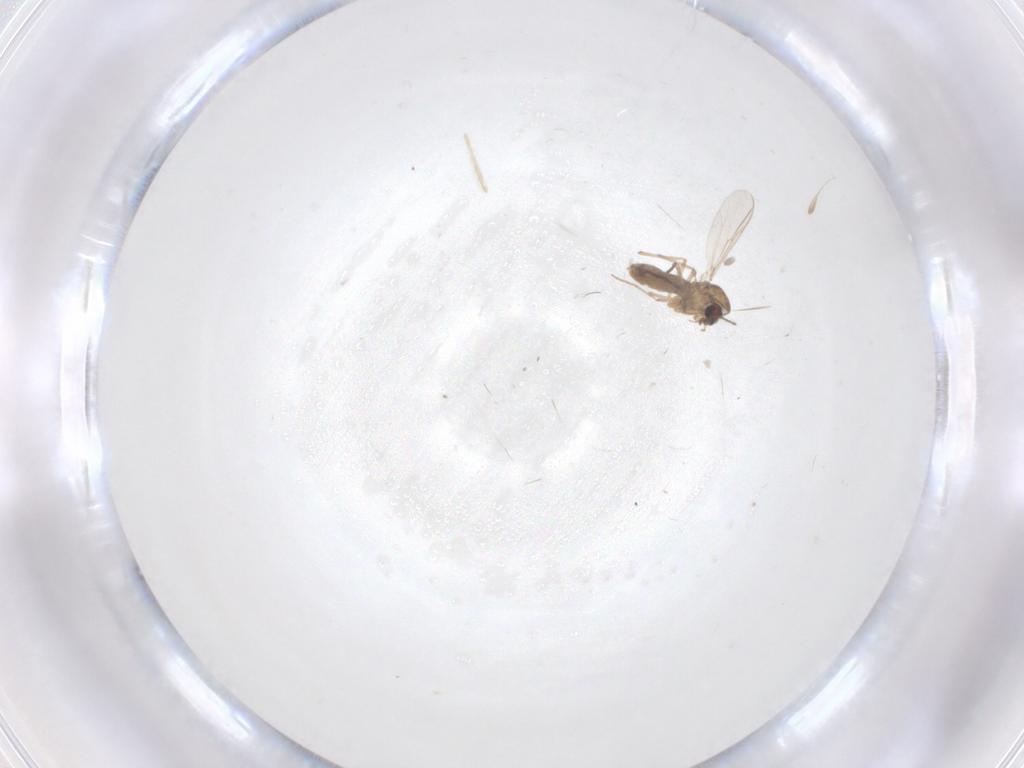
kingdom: Animalia
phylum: Arthropoda
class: Insecta
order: Diptera
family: Chironomidae
